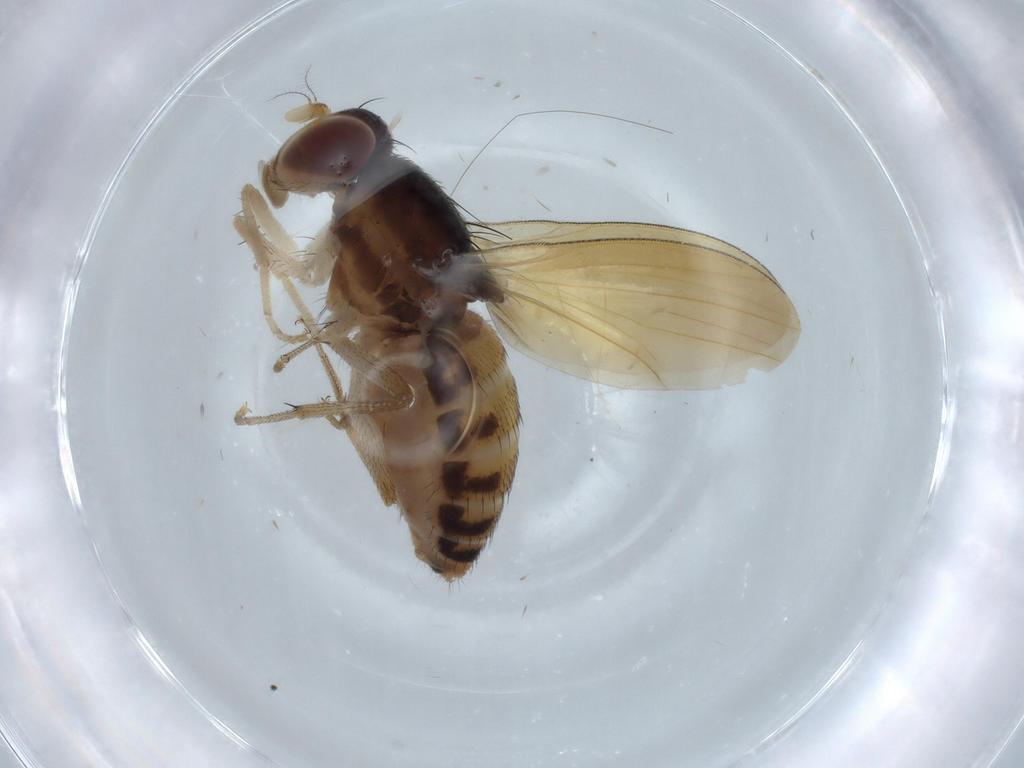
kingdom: Animalia
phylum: Arthropoda
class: Insecta
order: Diptera
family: Cecidomyiidae
